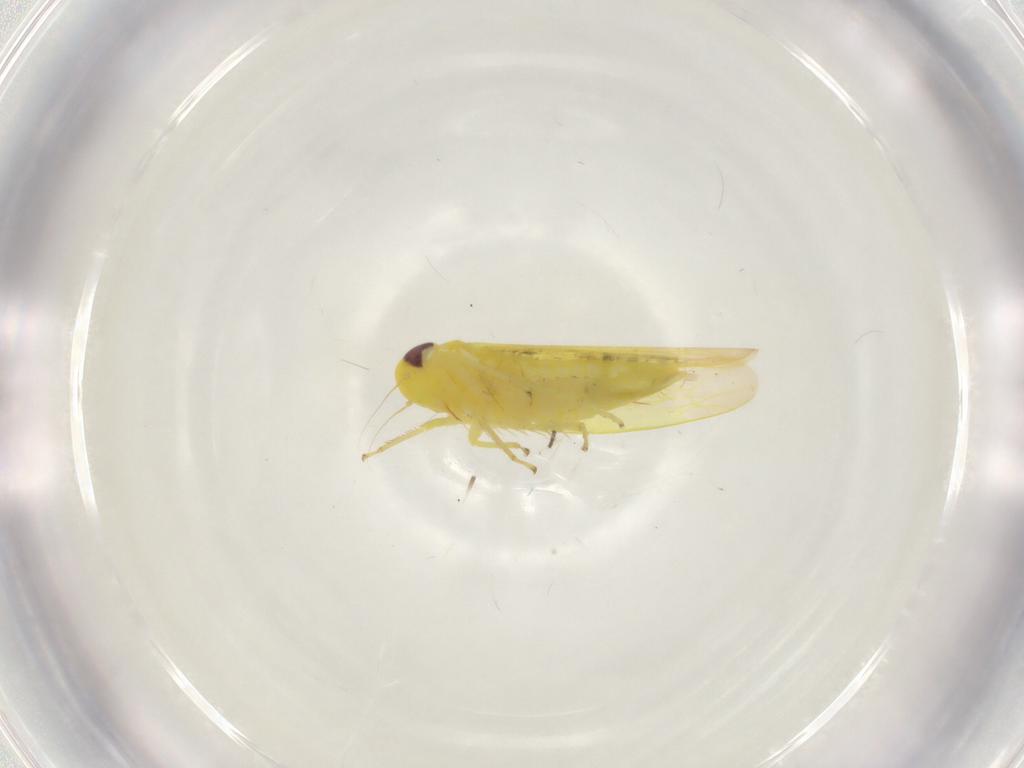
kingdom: Animalia
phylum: Arthropoda
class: Insecta
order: Hemiptera
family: Cicadellidae
